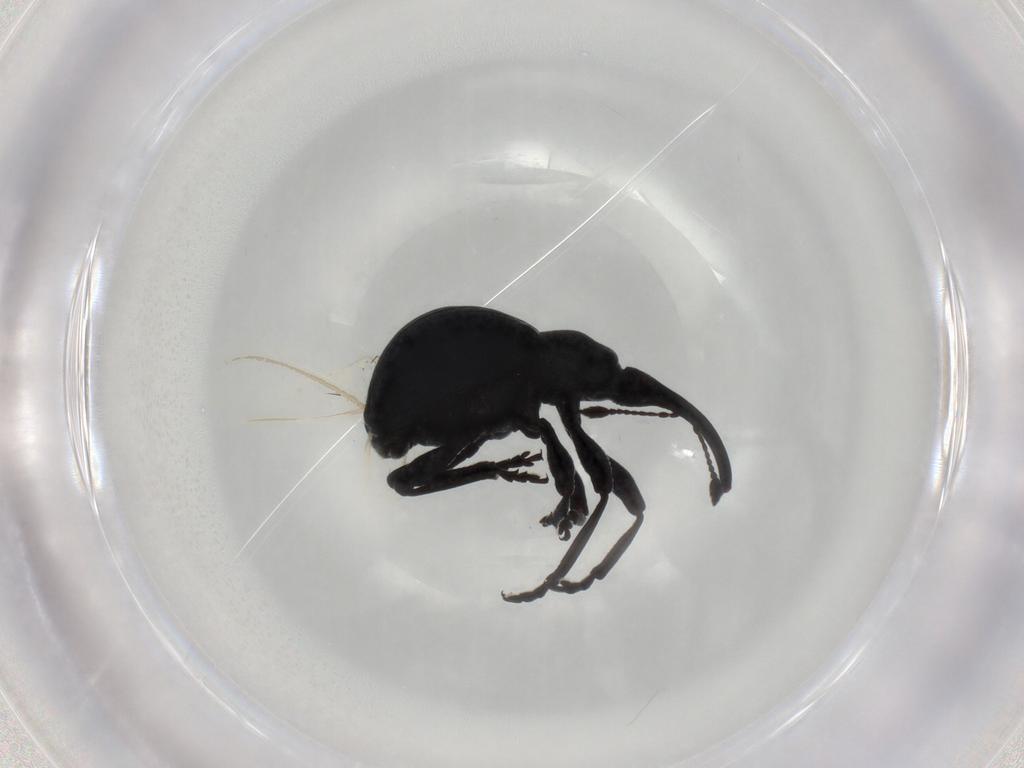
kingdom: Animalia
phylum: Arthropoda
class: Insecta
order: Coleoptera
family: Brentidae
